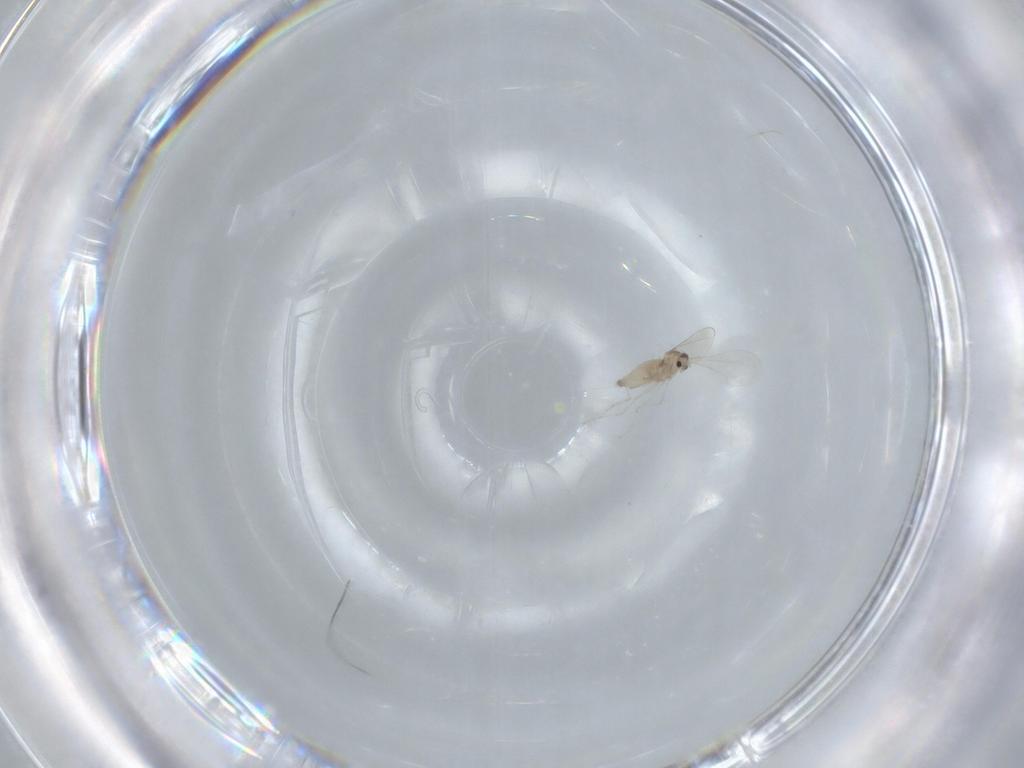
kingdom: Animalia
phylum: Arthropoda
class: Insecta
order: Diptera
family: Cecidomyiidae
